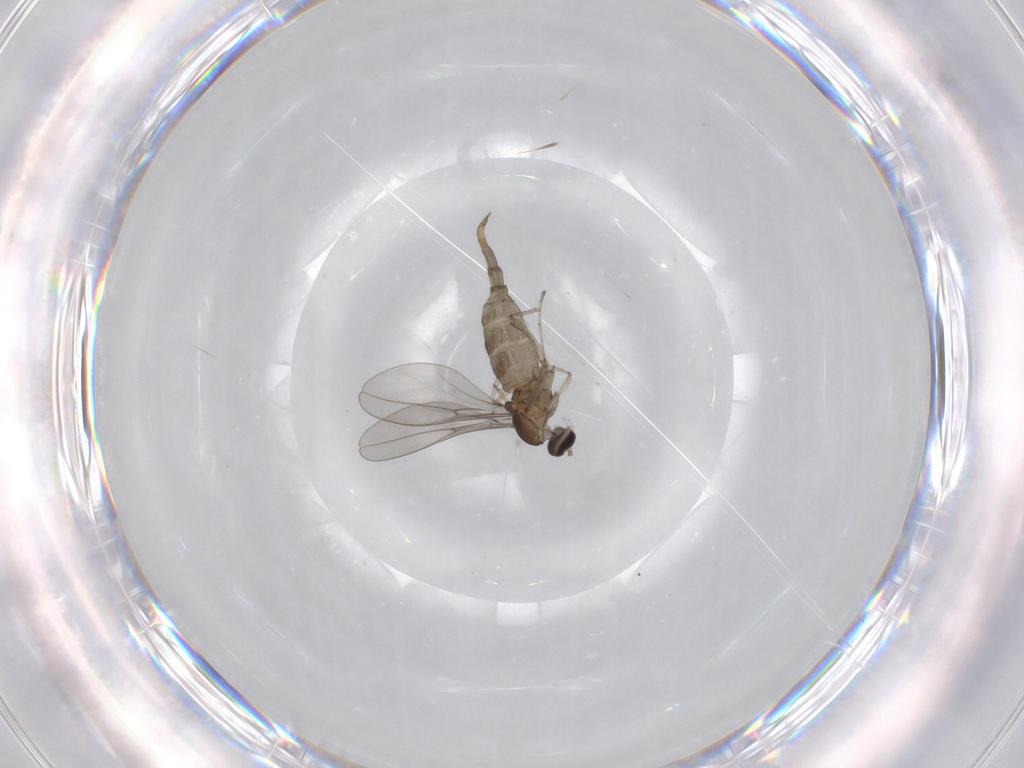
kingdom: Animalia
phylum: Arthropoda
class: Insecta
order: Diptera
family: Cecidomyiidae
